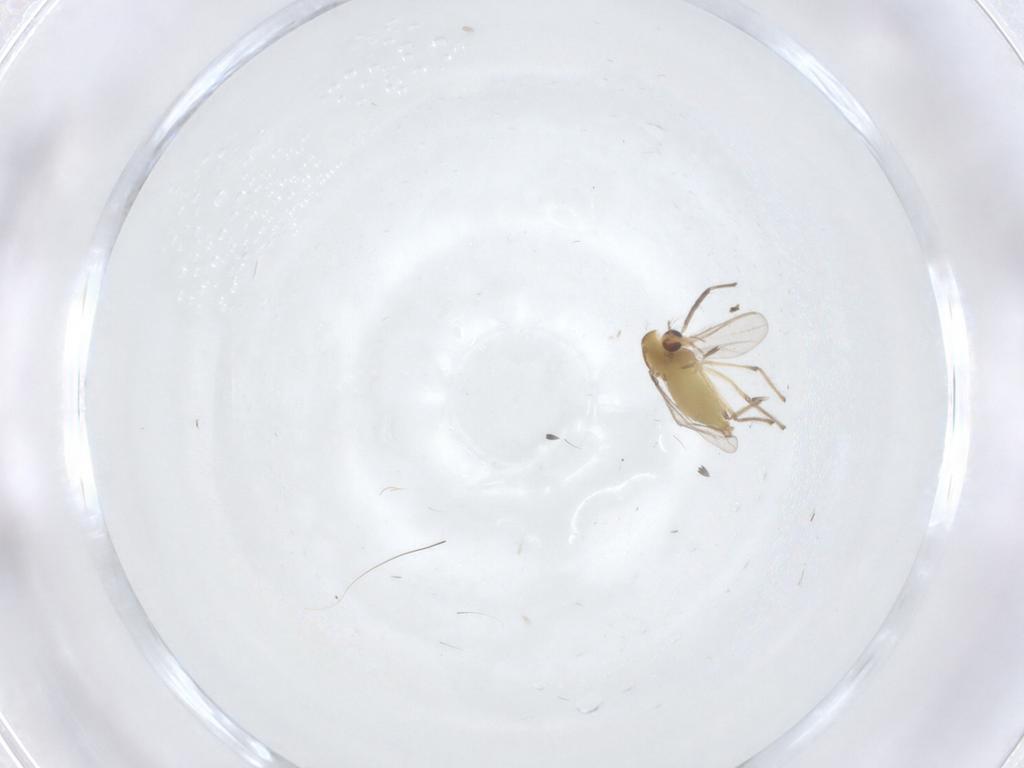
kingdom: Animalia
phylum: Arthropoda
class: Insecta
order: Diptera
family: Chironomidae
